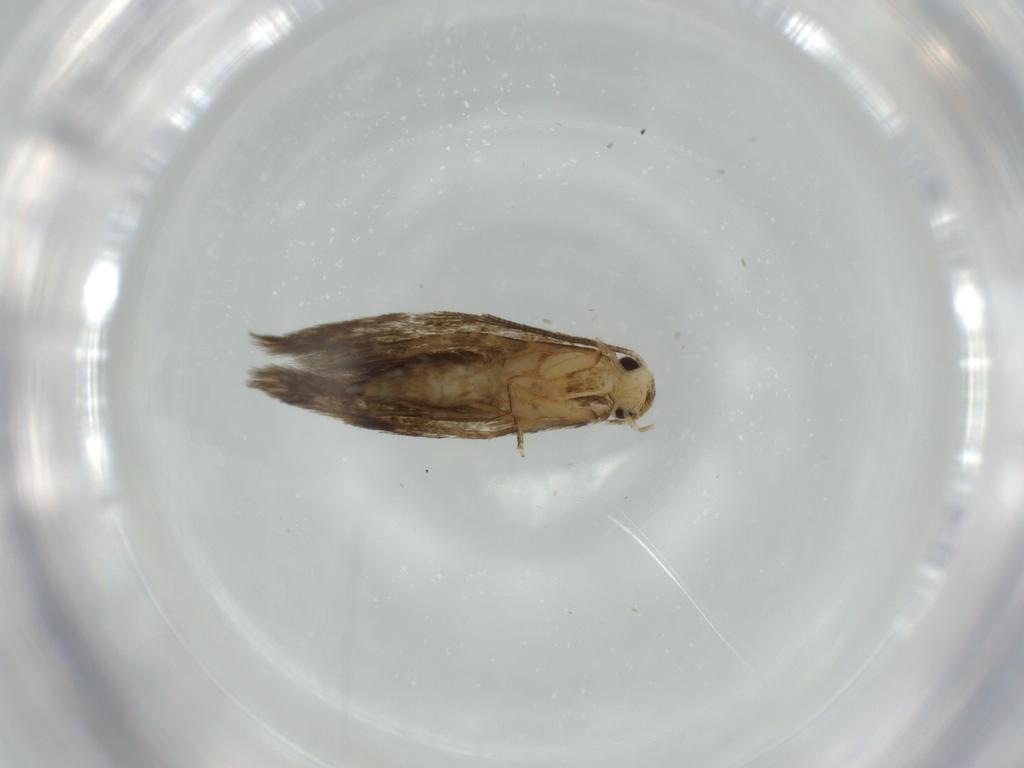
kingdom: Animalia
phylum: Arthropoda
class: Insecta
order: Lepidoptera
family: Tineidae
